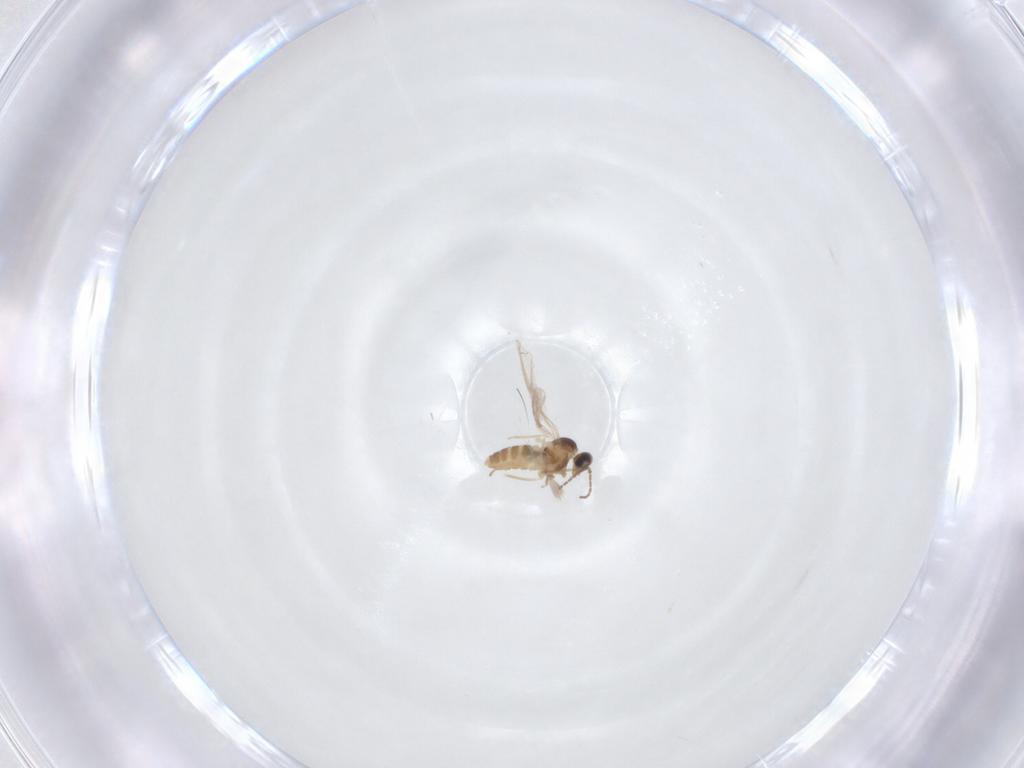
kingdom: Animalia
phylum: Arthropoda
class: Insecta
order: Diptera
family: Cecidomyiidae
